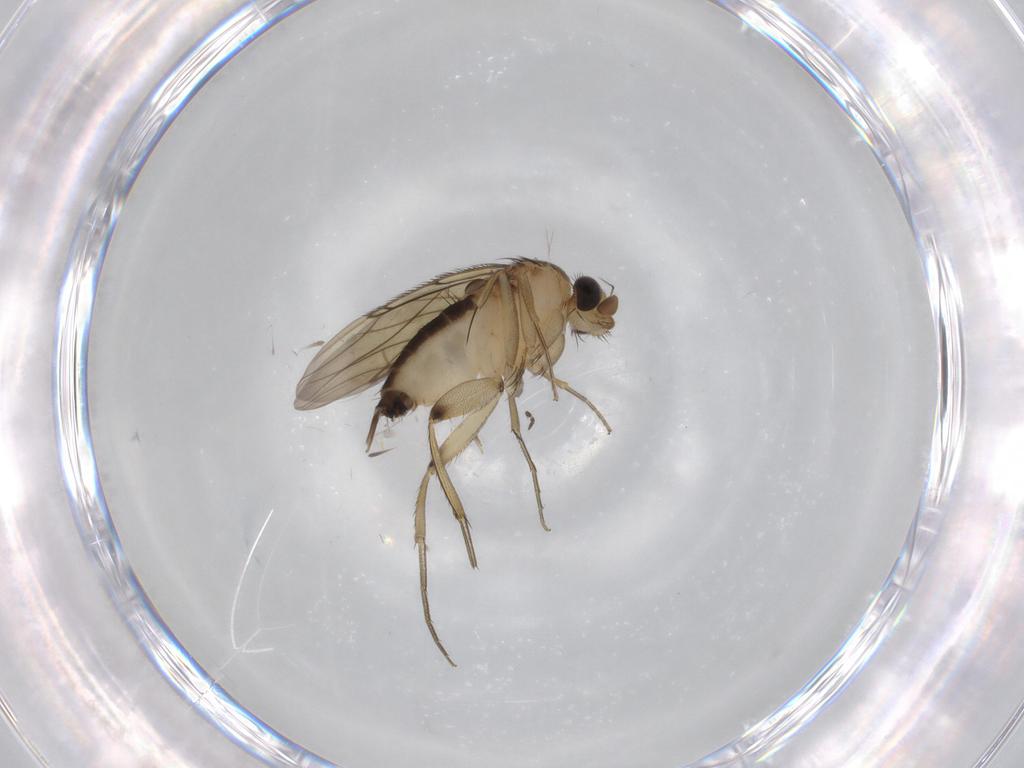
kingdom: Animalia
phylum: Arthropoda
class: Insecta
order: Diptera
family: Phoridae
